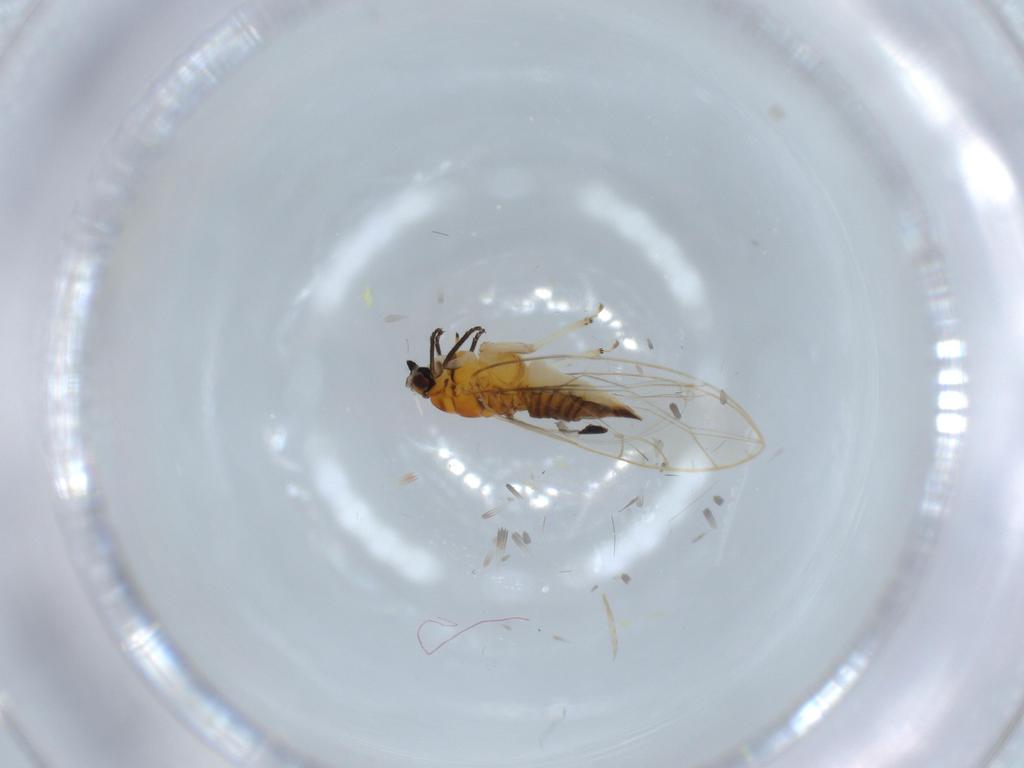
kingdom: Animalia
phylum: Arthropoda
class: Insecta
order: Hemiptera
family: Triozidae
